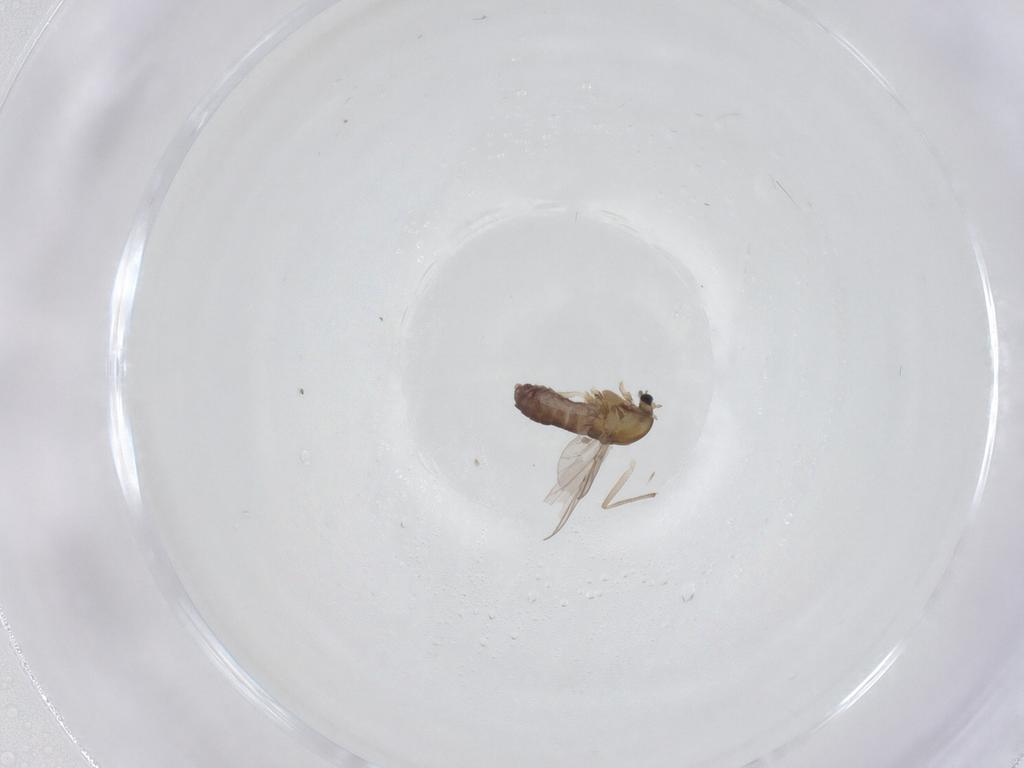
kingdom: Animalia
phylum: Arthropoda
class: Insecta
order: Diptera
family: Chironomidae
